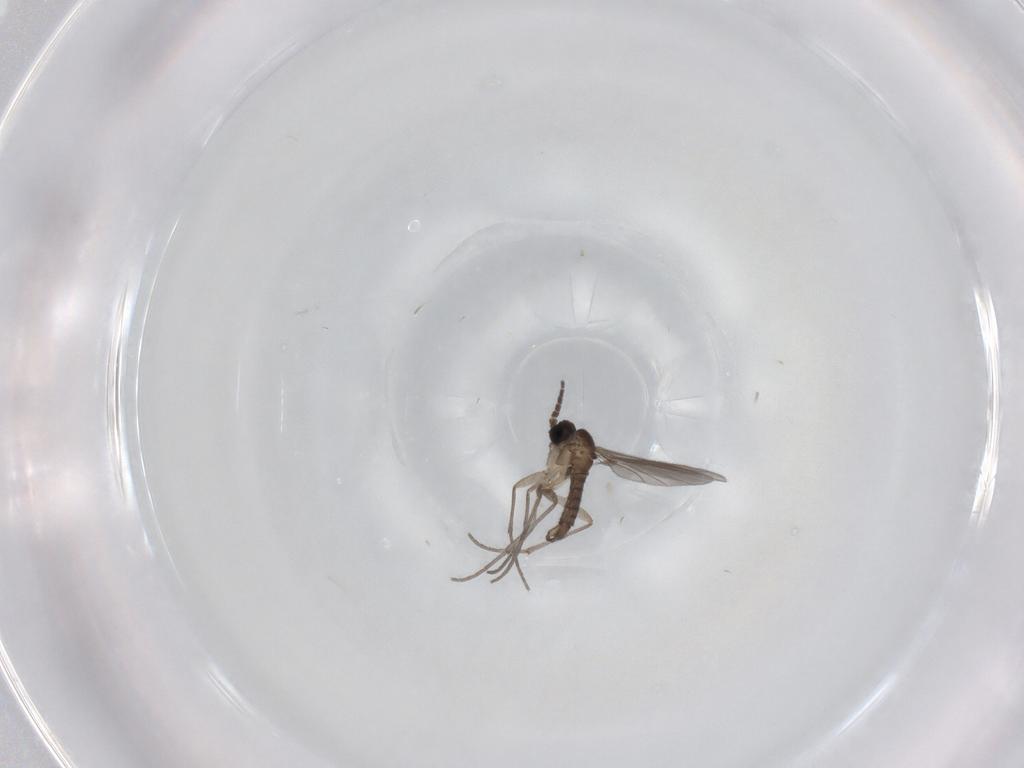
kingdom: Animalia
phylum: Arthropoda
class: Insecta
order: Diptera
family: Sciaridae
